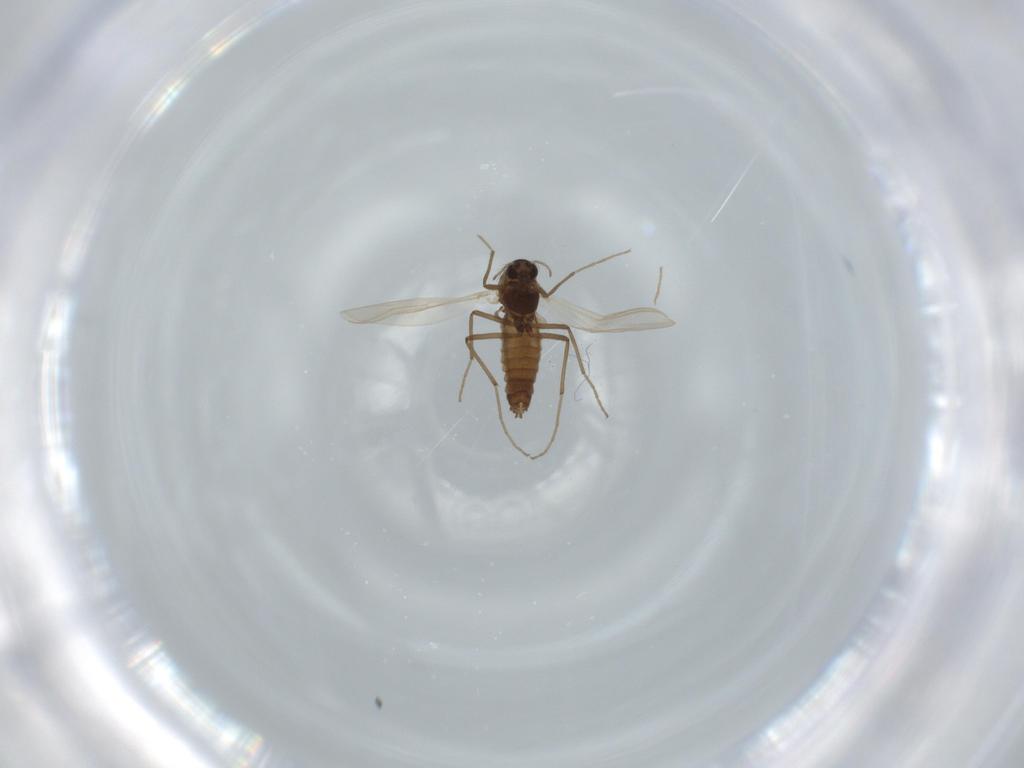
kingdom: Animalia
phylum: Arthropoda
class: Insecta
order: Diptera
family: Chironomidae
